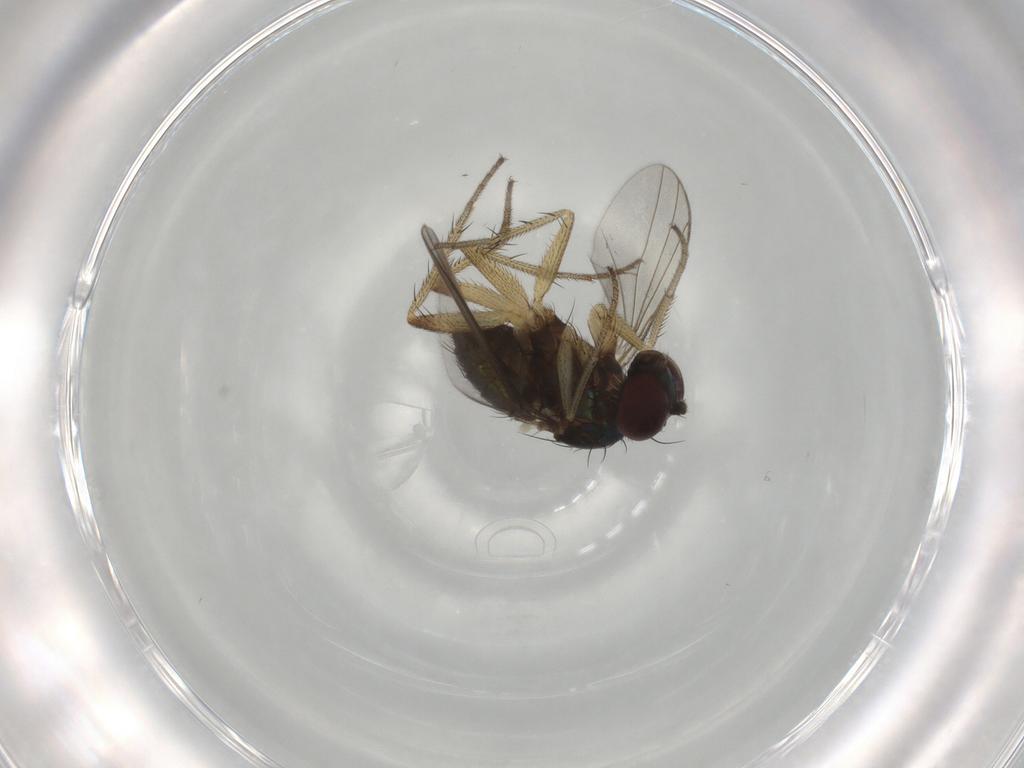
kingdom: Animalia
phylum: Arthropoda
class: Insecta
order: Diptera
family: Dolichopodidae
